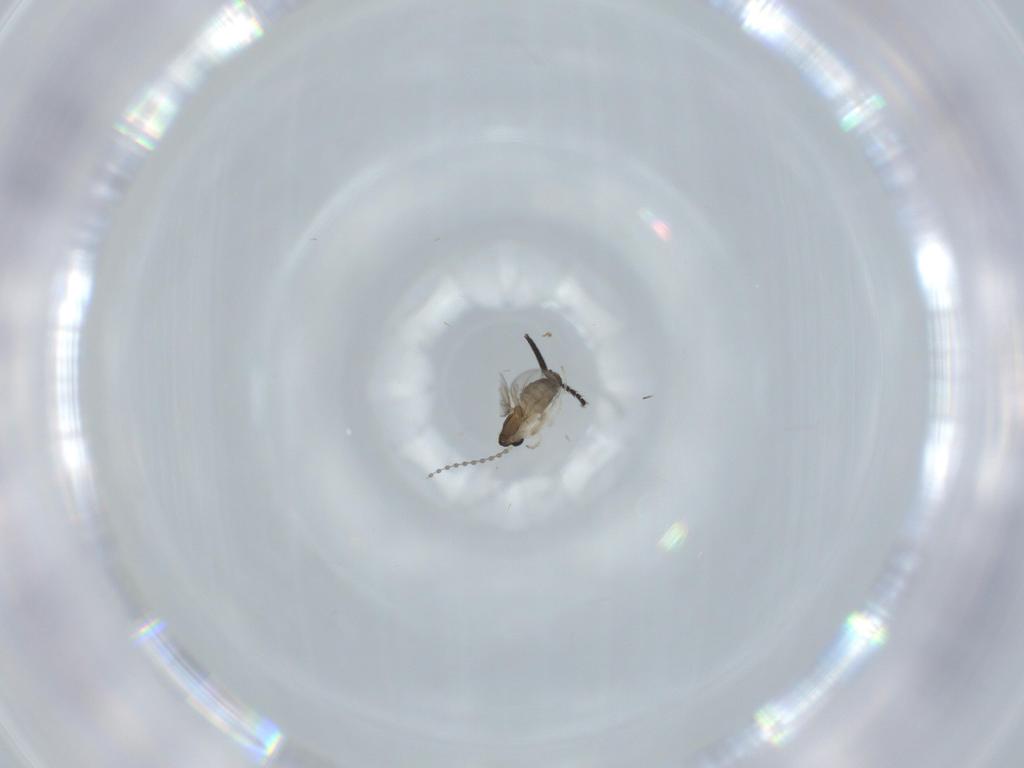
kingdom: Animalia
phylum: Arthropoda
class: Insecta
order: Diptera
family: Cecidomyiidae
